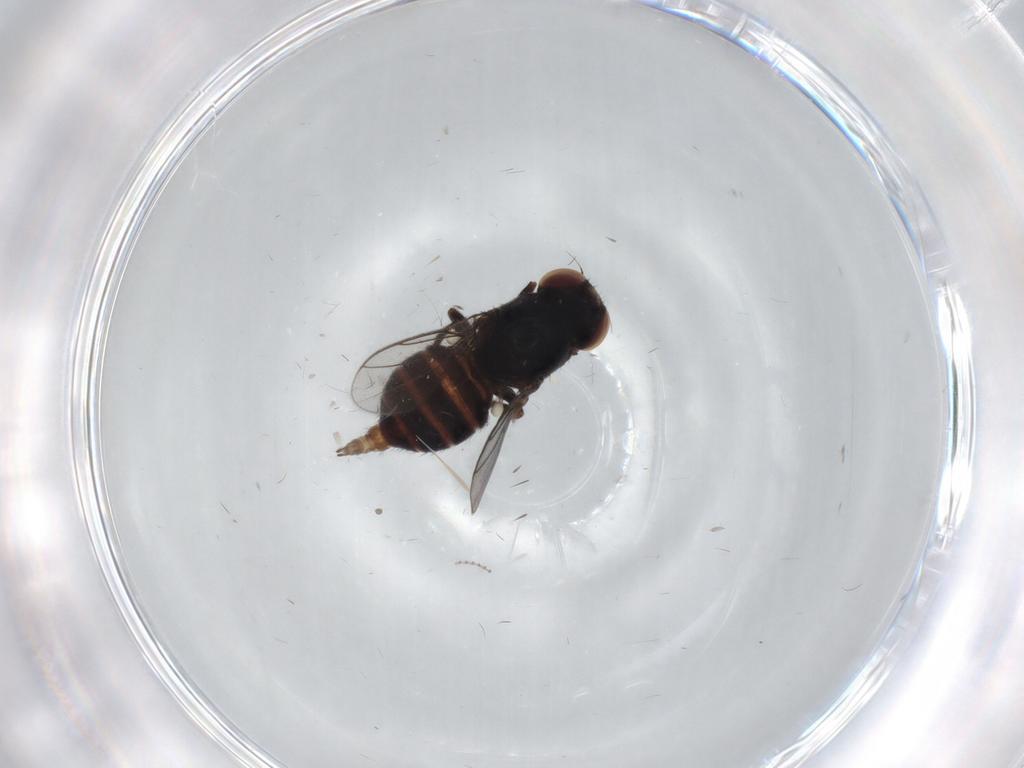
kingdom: Animalia
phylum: Arthropoda
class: Insecta
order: Diptera
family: Chloropidae
